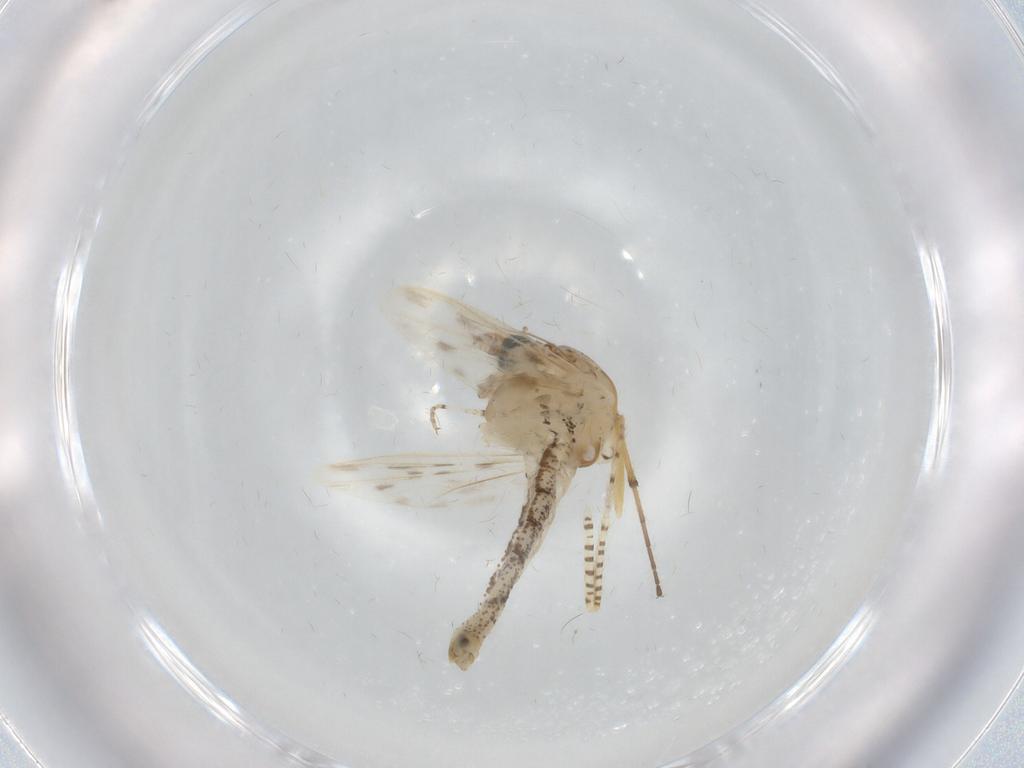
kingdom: Animalia
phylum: Arthropoda
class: Insecta
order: Diptera
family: Chaoboridae
